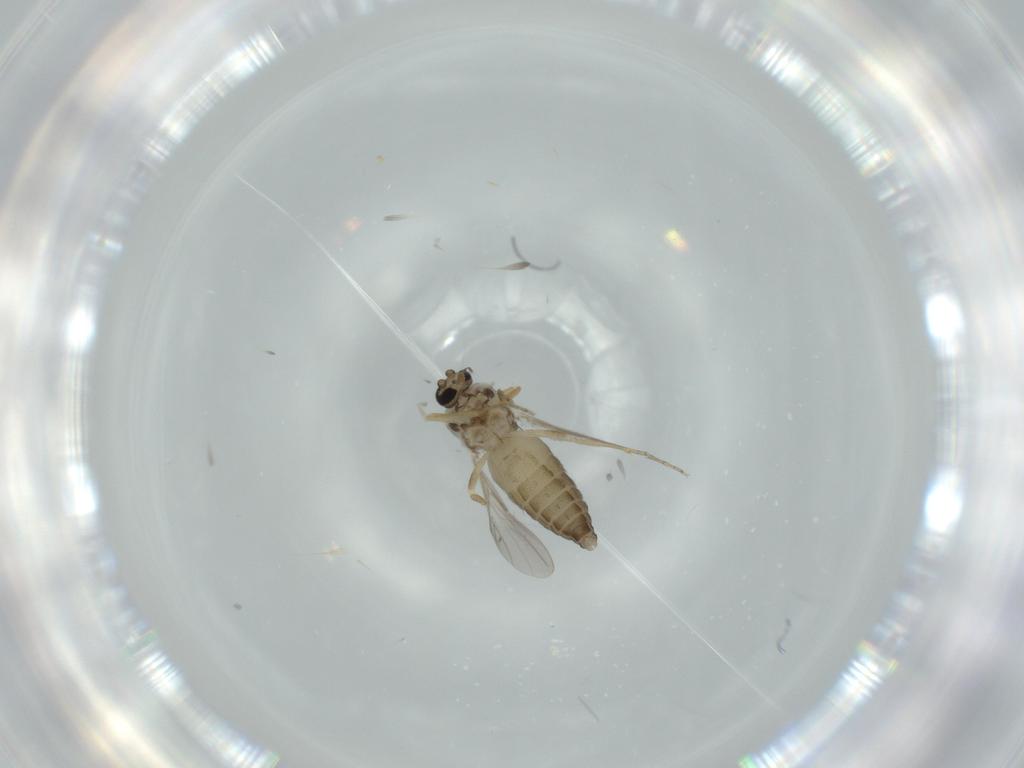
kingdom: Animalia
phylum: Arthropoda
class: Insecta
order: Diptera
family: Ceratopogonidae
